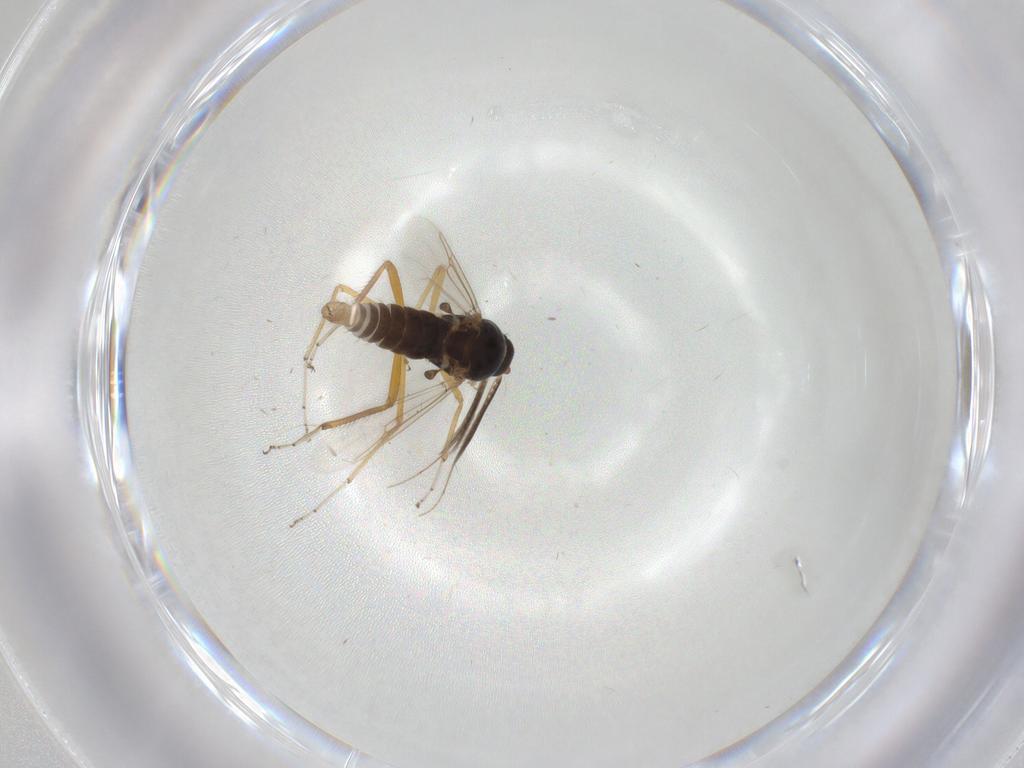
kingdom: Animalia
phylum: Arthropoda
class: Insecta
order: Diptera
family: Ceratopogonidae
